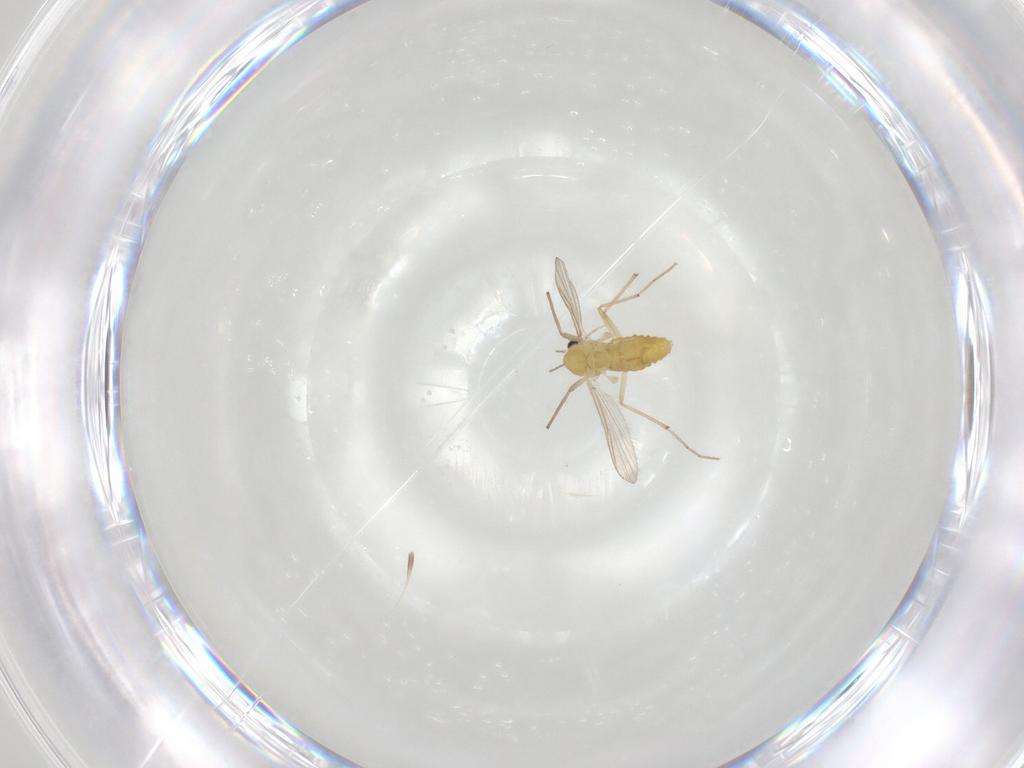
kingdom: Animalia
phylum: Arthropoda
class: Insecta
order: Diptera
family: Chironomidae
